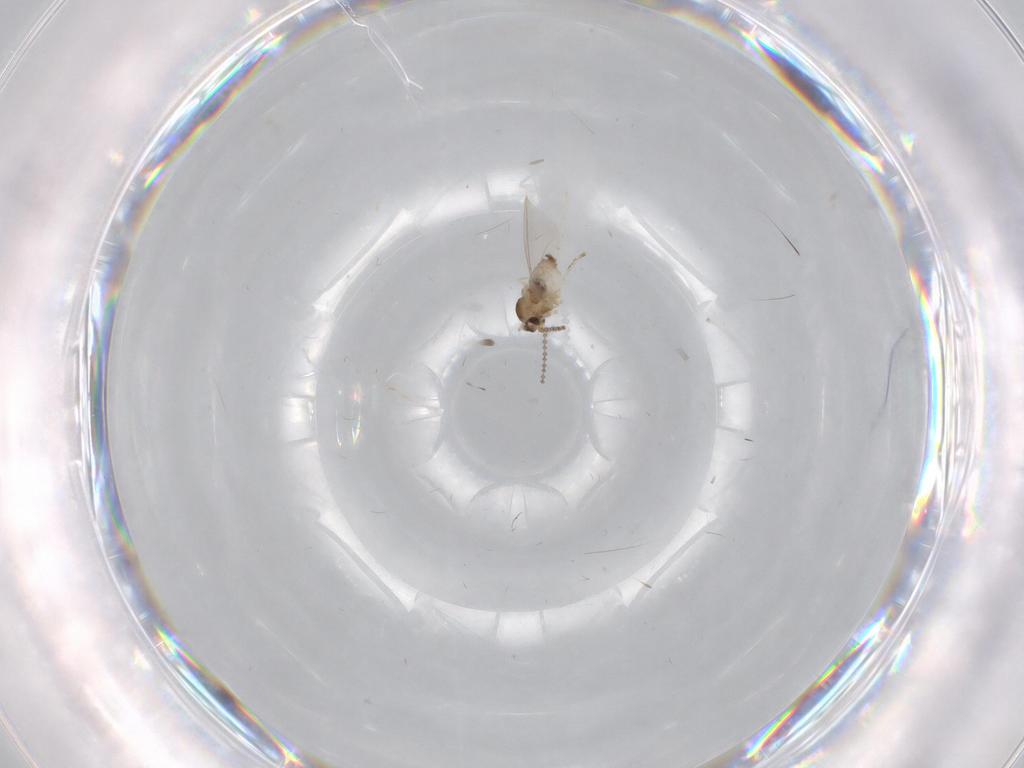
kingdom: Animalia
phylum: Arthropoda
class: Insecta
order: Diptera
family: Cecidomyiidae
